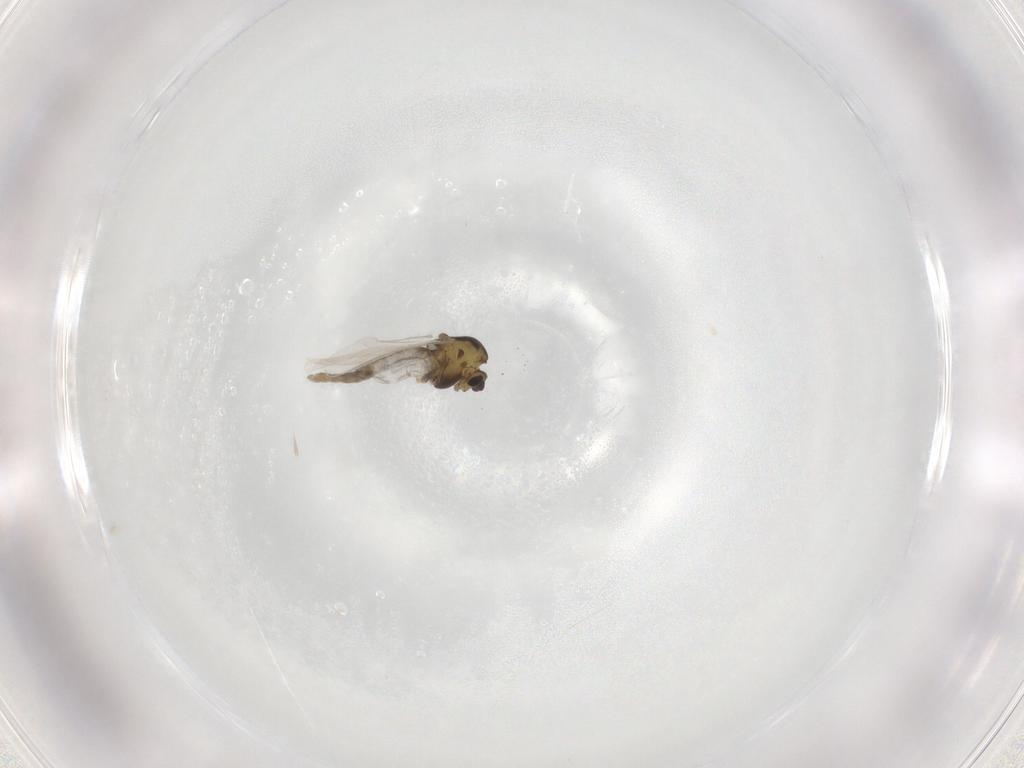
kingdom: Animalia
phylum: Arthropoda
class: Insecta
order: Diptera
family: Chironomidae
